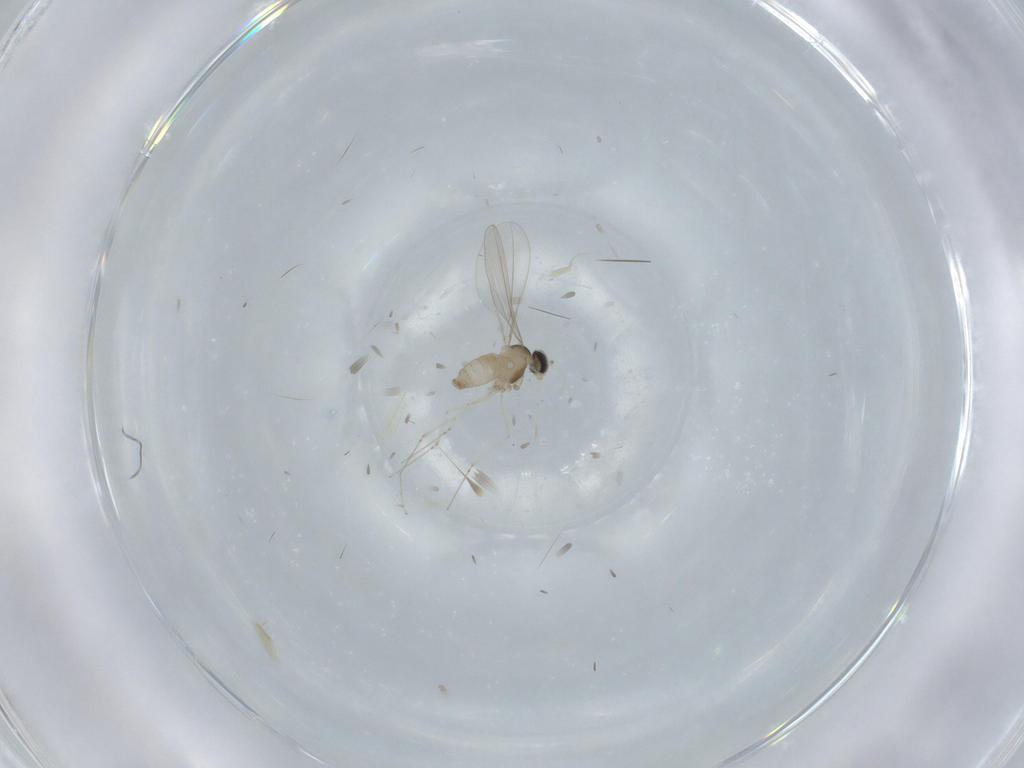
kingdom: Animalia
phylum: Arthropoda
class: Insecta
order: Diptera
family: Cecidomyiidae
